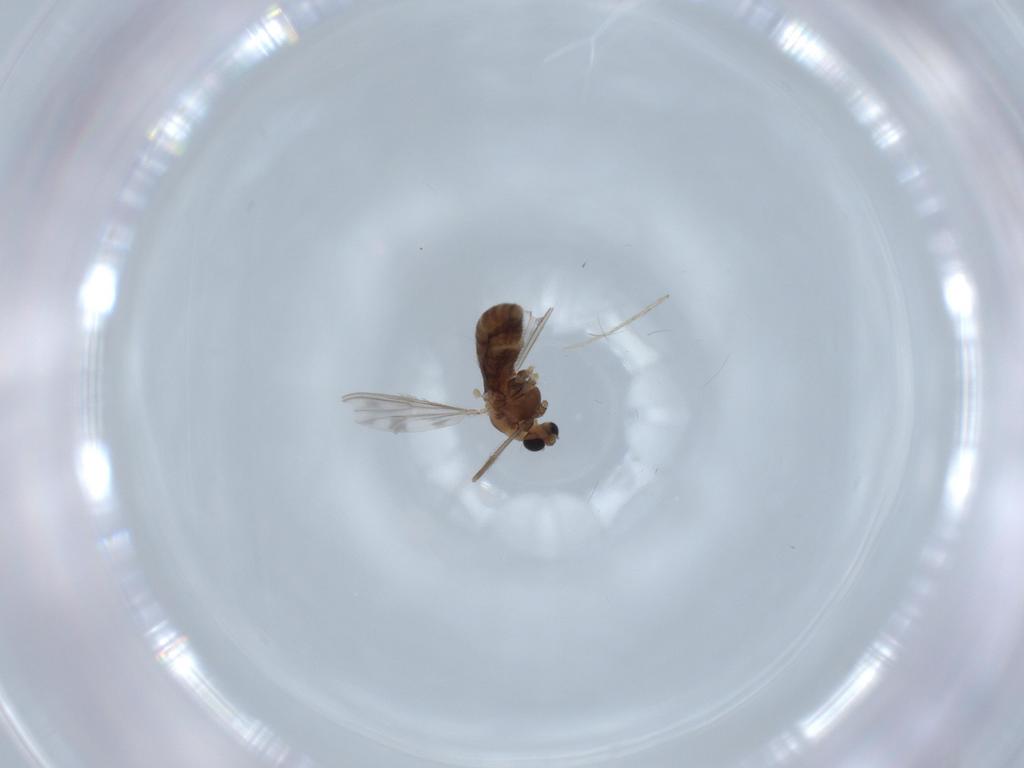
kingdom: Animalia
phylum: Arthropoda
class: Insecta
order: Diptera
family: Chironomidae
